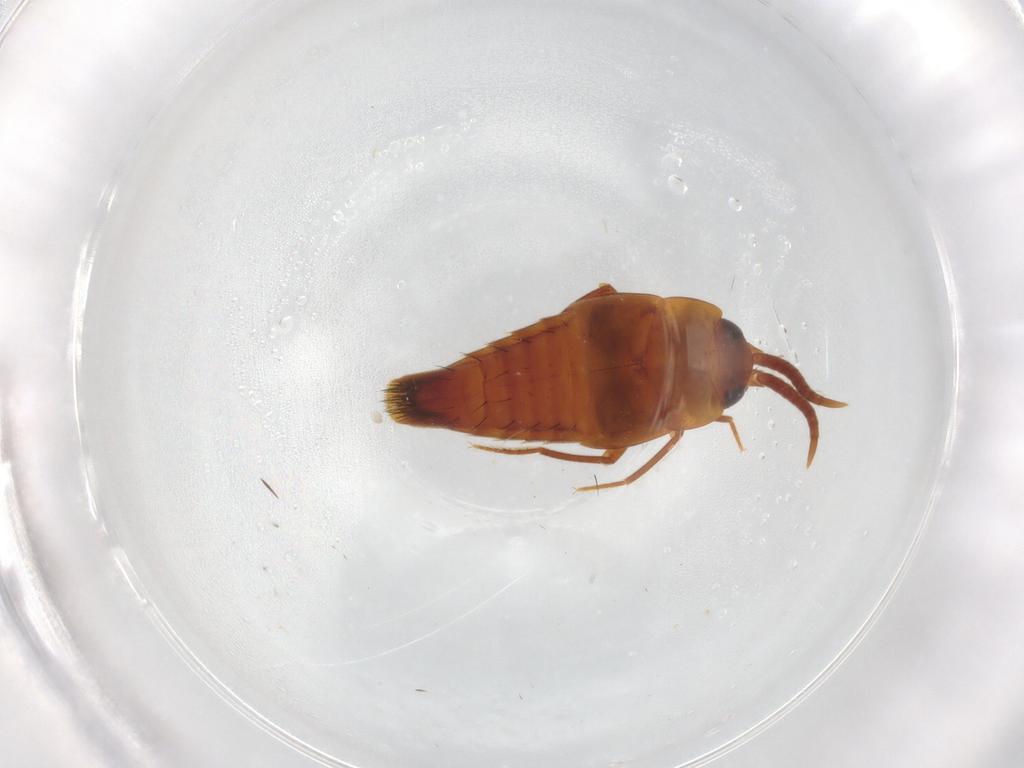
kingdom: Animalia
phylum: Arthropoda
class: Insecta
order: Coleoptera
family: Staphylinidae
